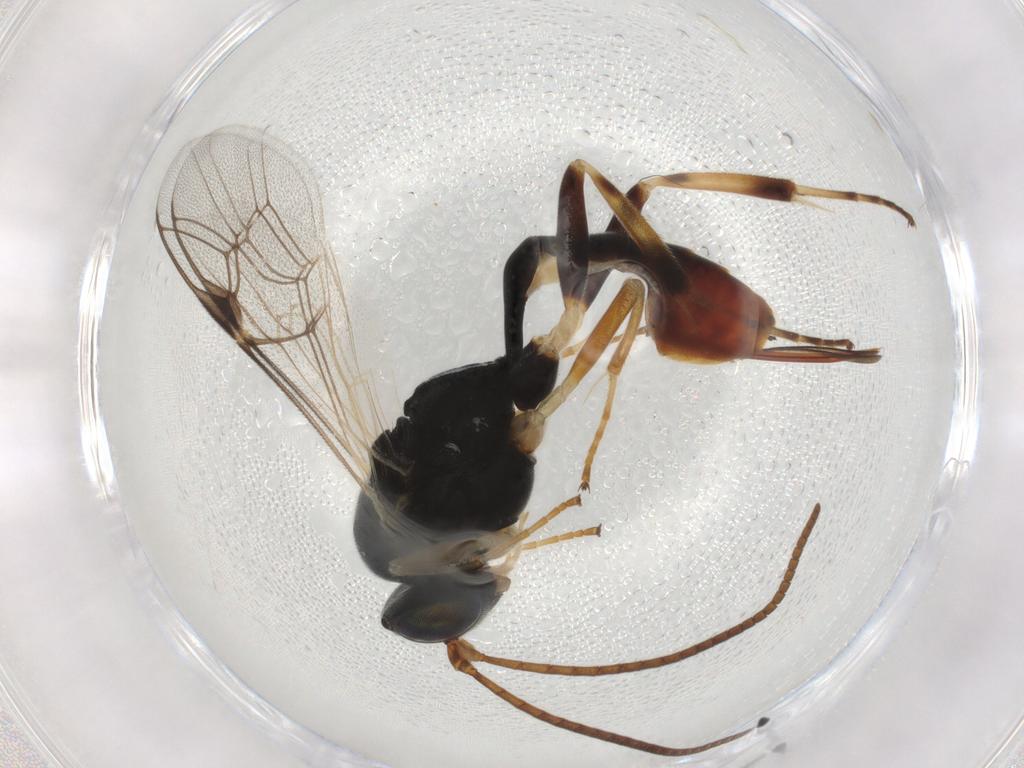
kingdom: Animalia
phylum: Arthropoda
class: Insecta
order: Hymenoptera
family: Ichneumonidae
